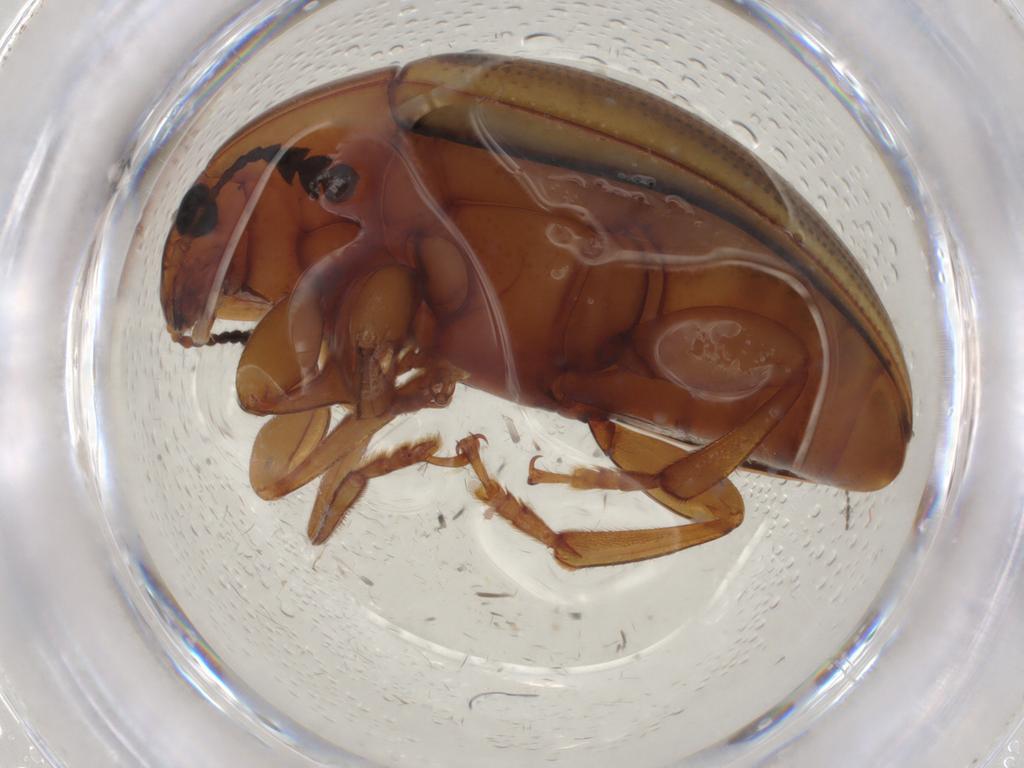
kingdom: Animalia
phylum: Arthropoda
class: Insecta
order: Coleoptera
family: Erotylidae
